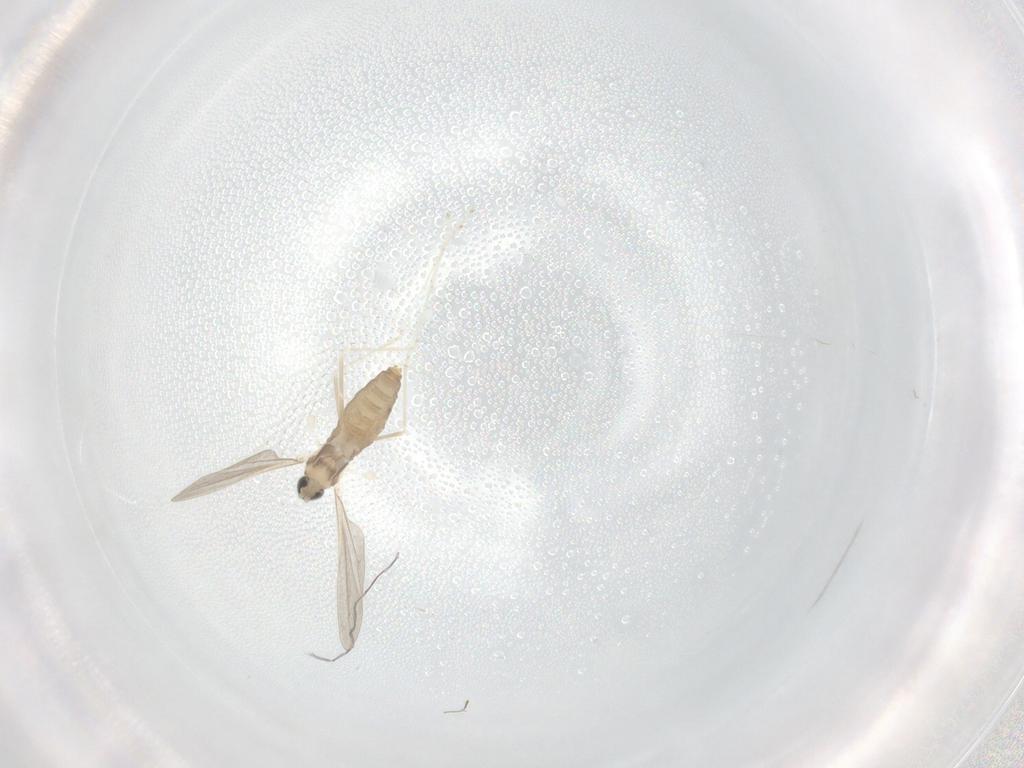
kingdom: Animalia
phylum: Arthropoda
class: Insecta
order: Diptera
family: Cecidomyiidae
